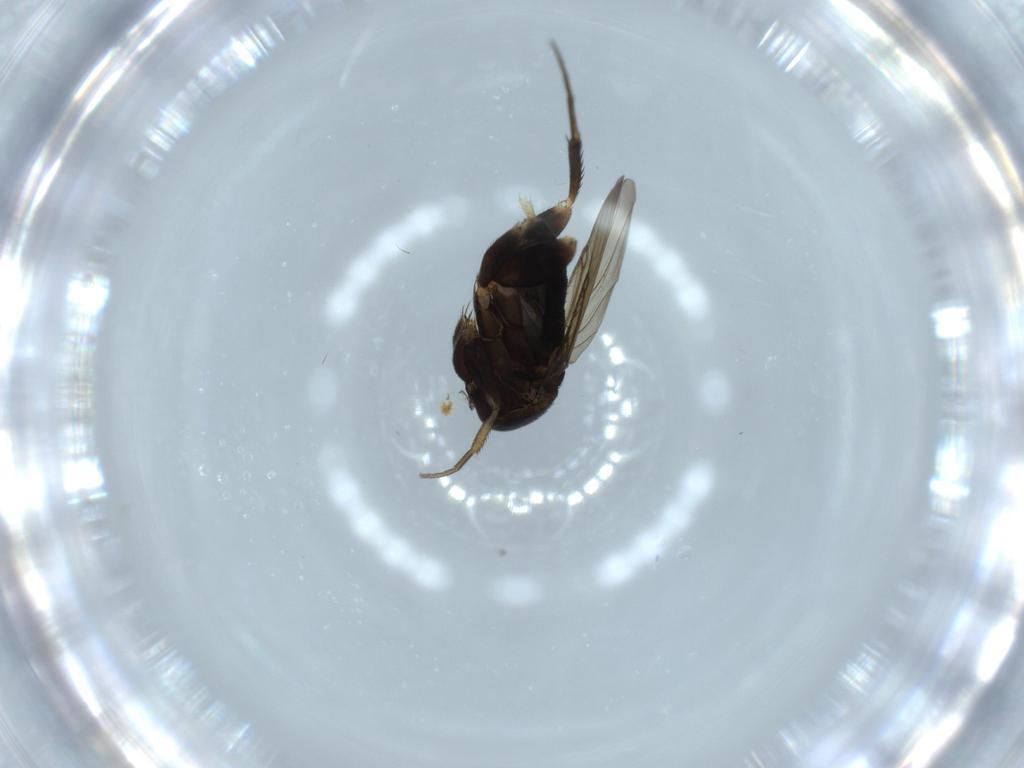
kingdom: Animalia
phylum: Arthropoda
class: Insecta
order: Diptera
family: Phoridae
